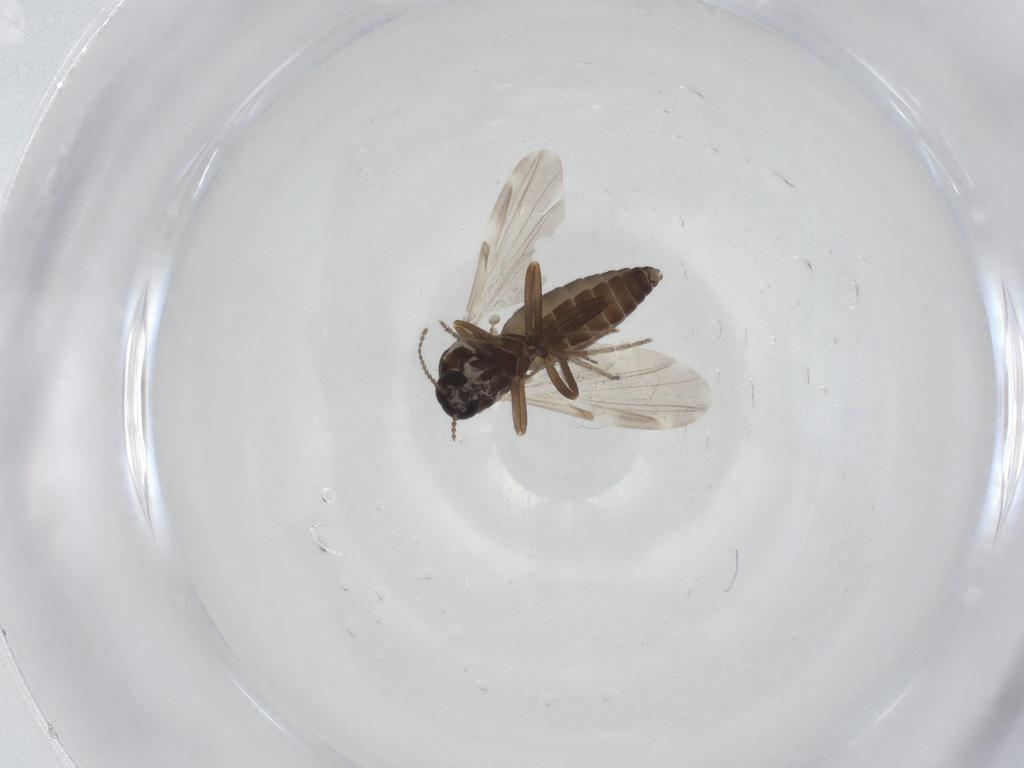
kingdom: Animalia
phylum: Arthropoda
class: Insecta
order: Diptera
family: Ceratopogonidae
